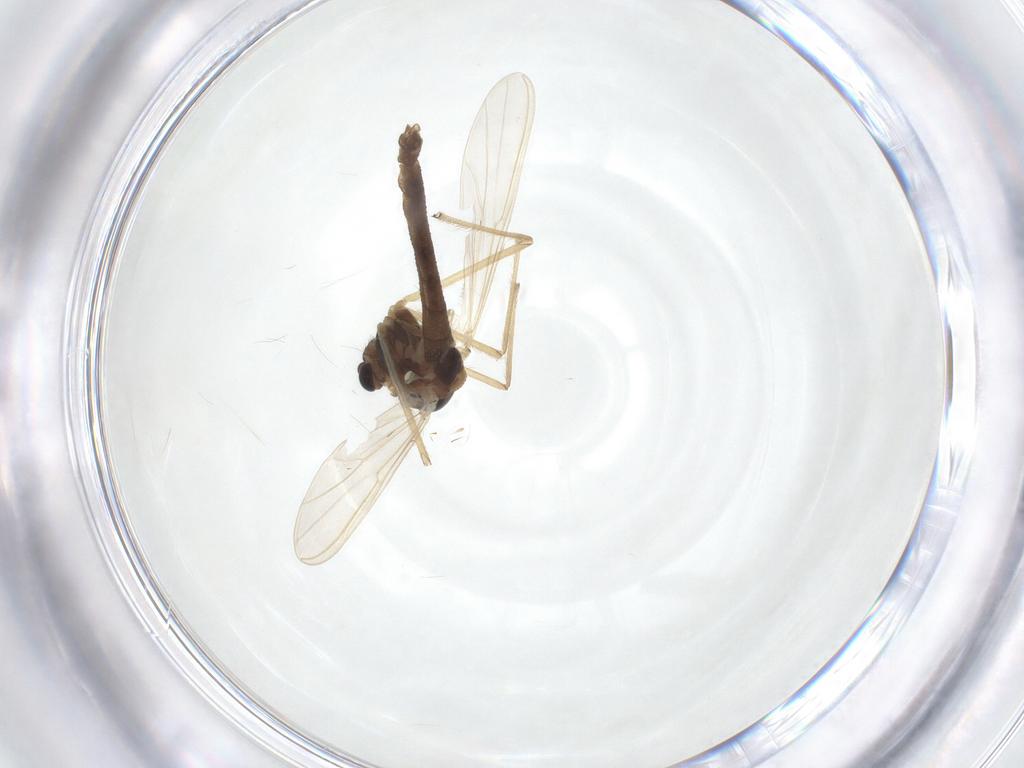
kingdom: Animalia
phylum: Arthropoda
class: Insecta
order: Diptera
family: Chironomidae
